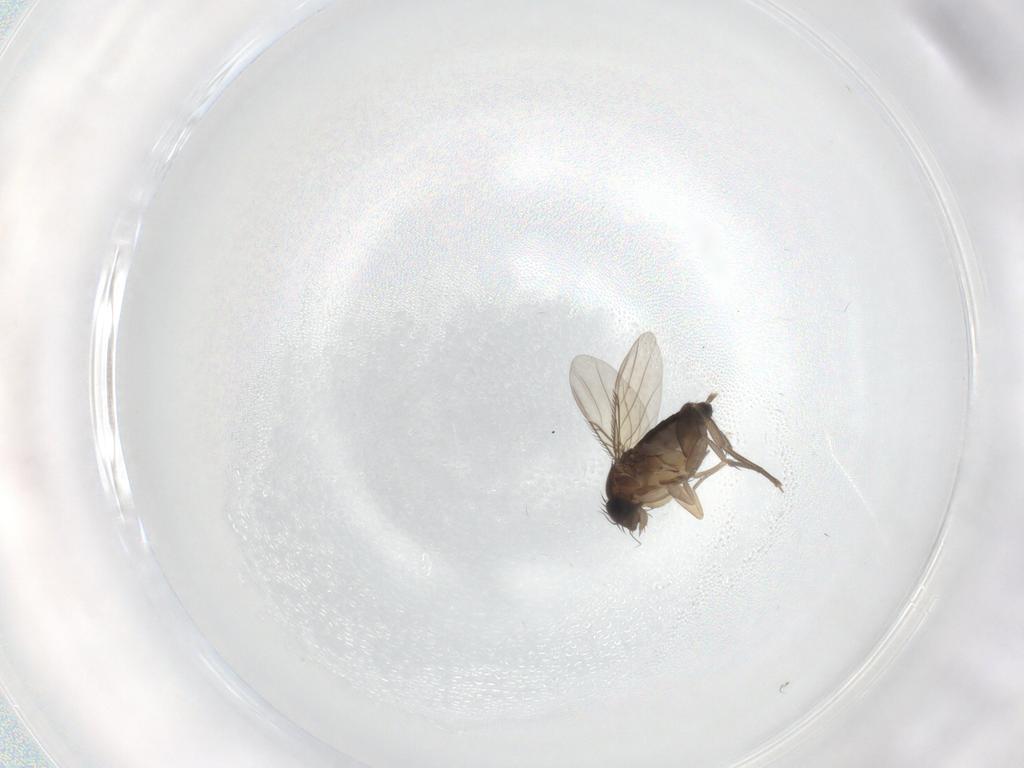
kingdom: Animalia
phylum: Arthropoda
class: Insecta
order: Diptera
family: Phoridae
